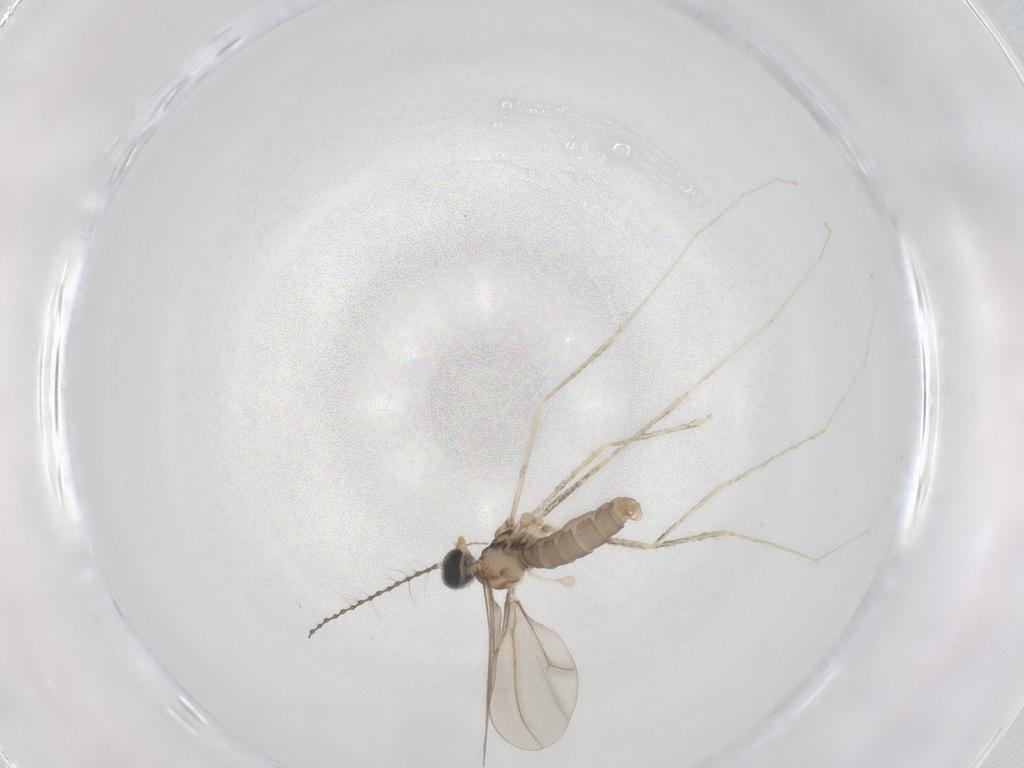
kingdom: Animalia
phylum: Arthropoda
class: Insecta
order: Diptera
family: Cecidomyiidae
